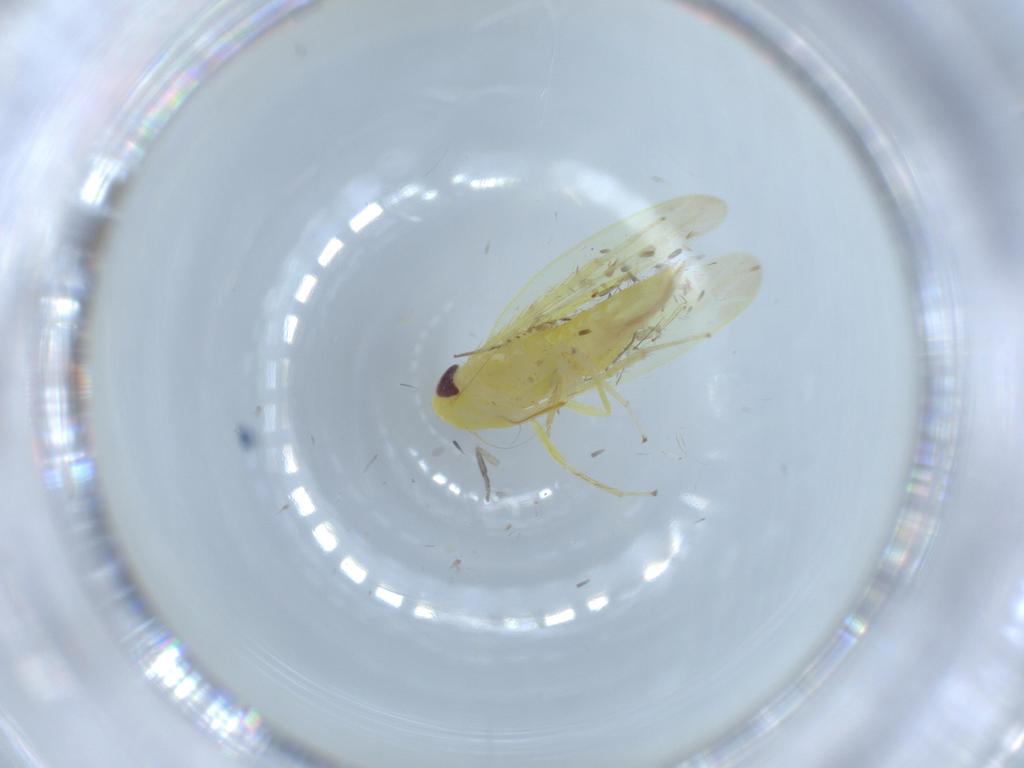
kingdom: Animalia
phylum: Arthropoda
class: Insecta
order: Hemiptera
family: Cicadellidae
